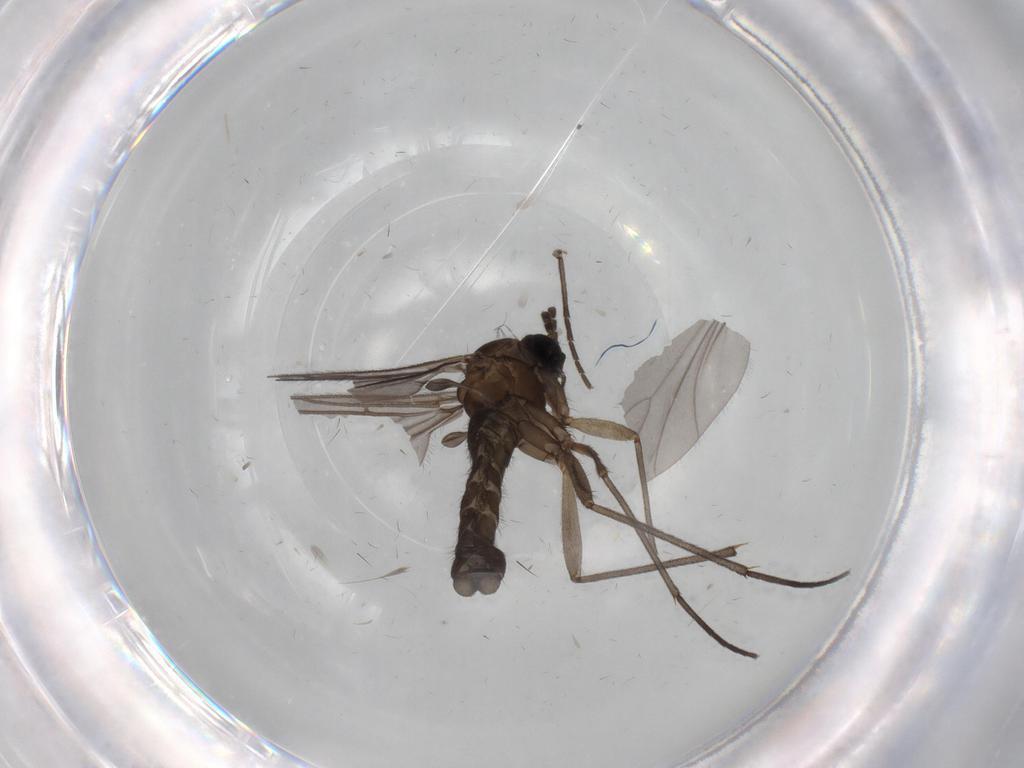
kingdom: Animalia
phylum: Arthropoda
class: Insecta
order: Diptera
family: Sciaridae
